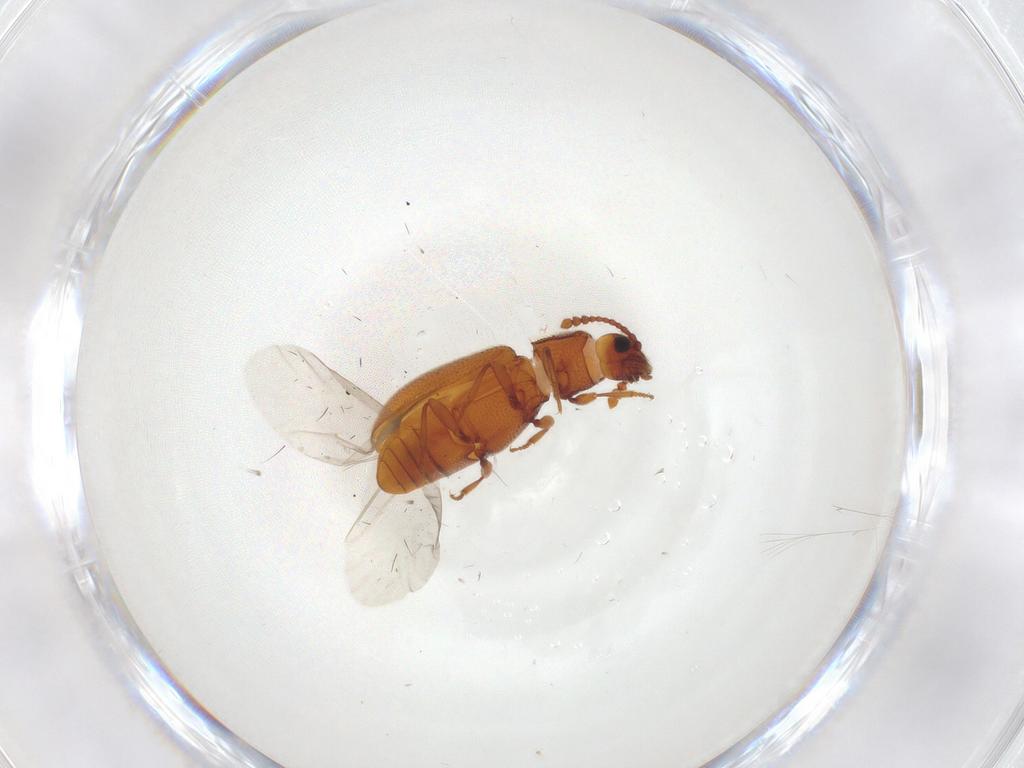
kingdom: Animalia
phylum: Arthropoda
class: Insecta
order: Coleoptera
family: Cryptophagidae
